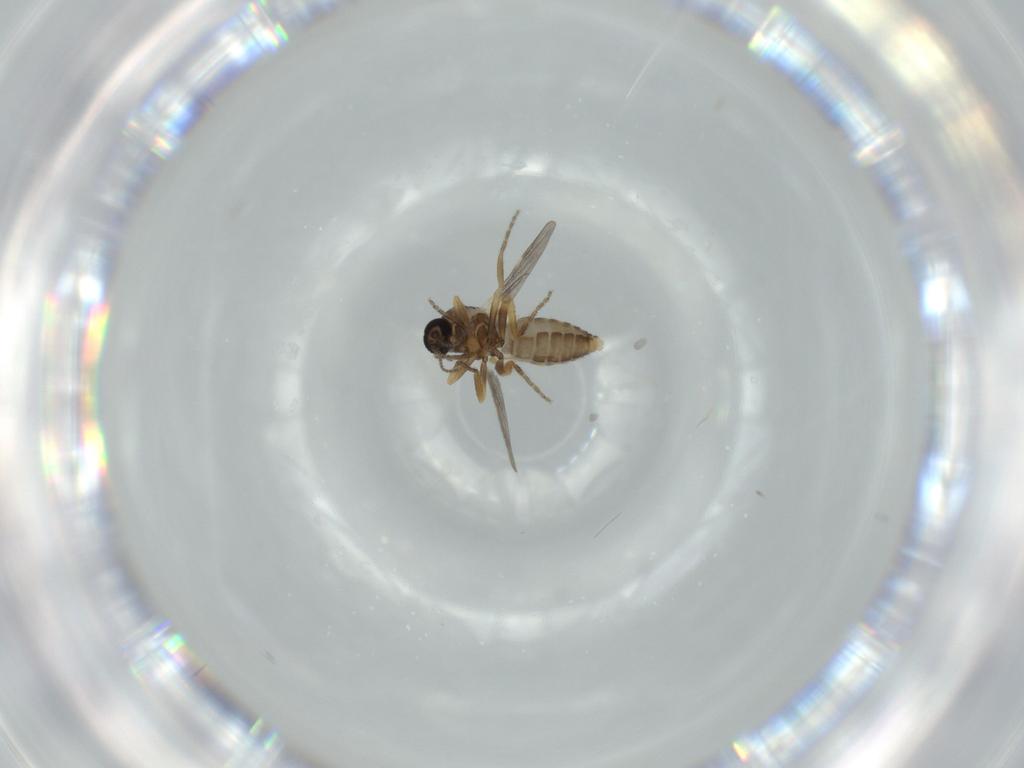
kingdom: Animalia
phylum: Arthropoda
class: Insecta
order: Diptera
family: Ceratopogonidae
